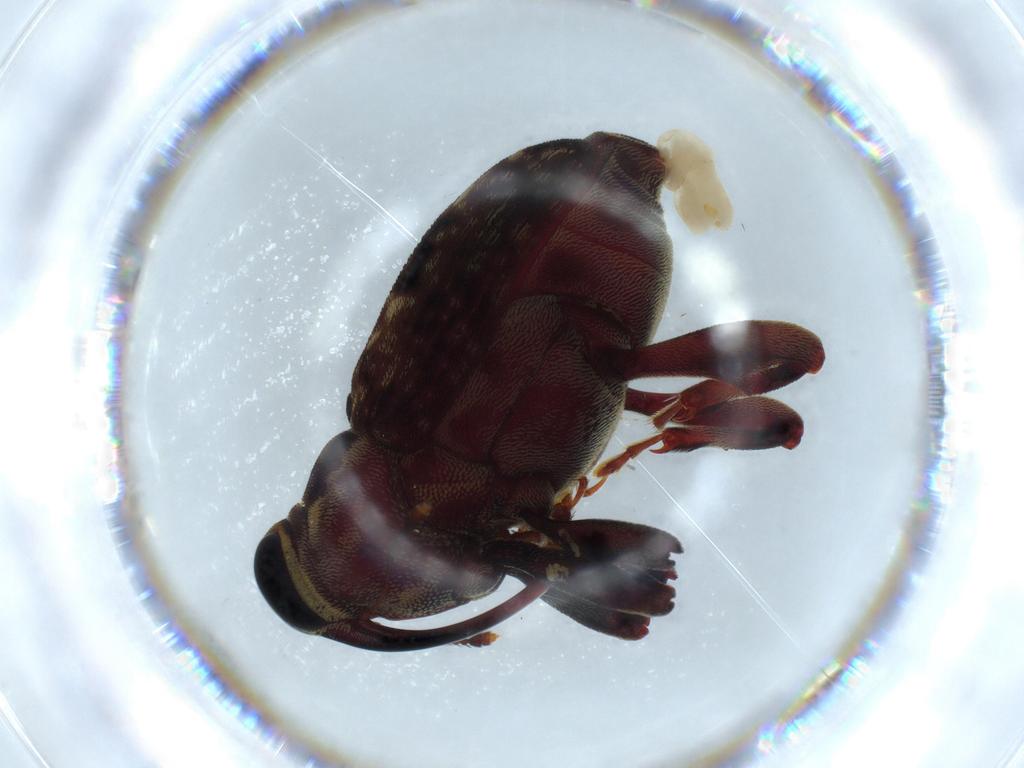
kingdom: Animalia
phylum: Arthropoda
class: Insecta
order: Coleoptera
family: Curculionidae
